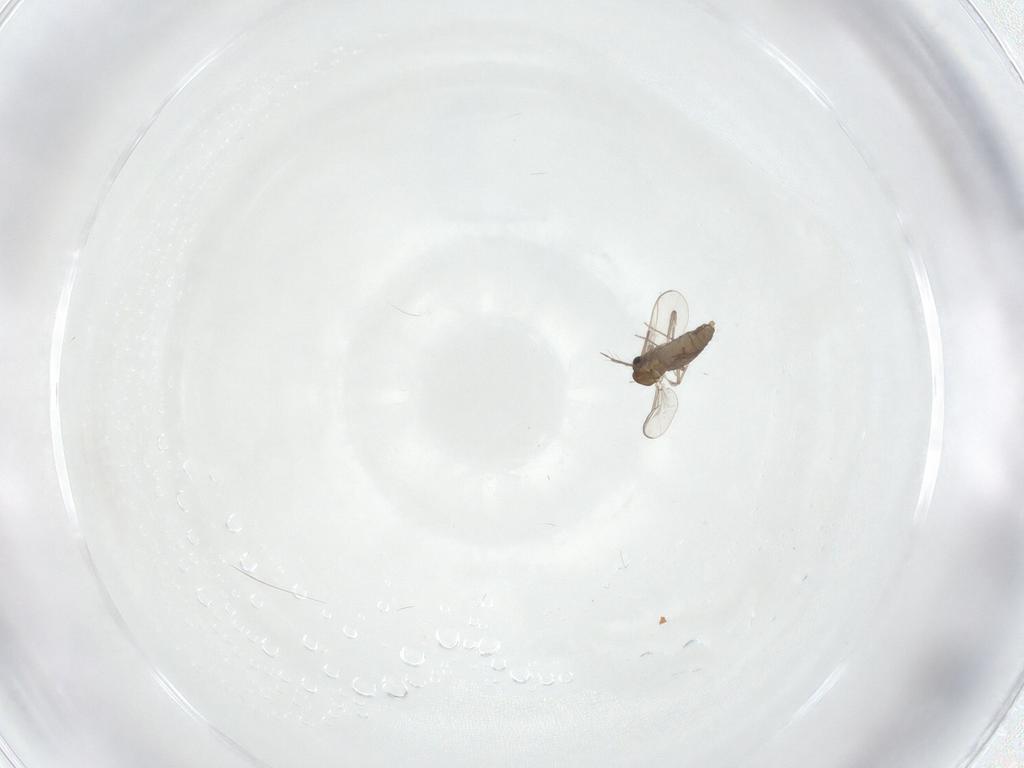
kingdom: Animalia
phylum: Arthropoda
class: Insecta
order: Diptera
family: Chironomidae
